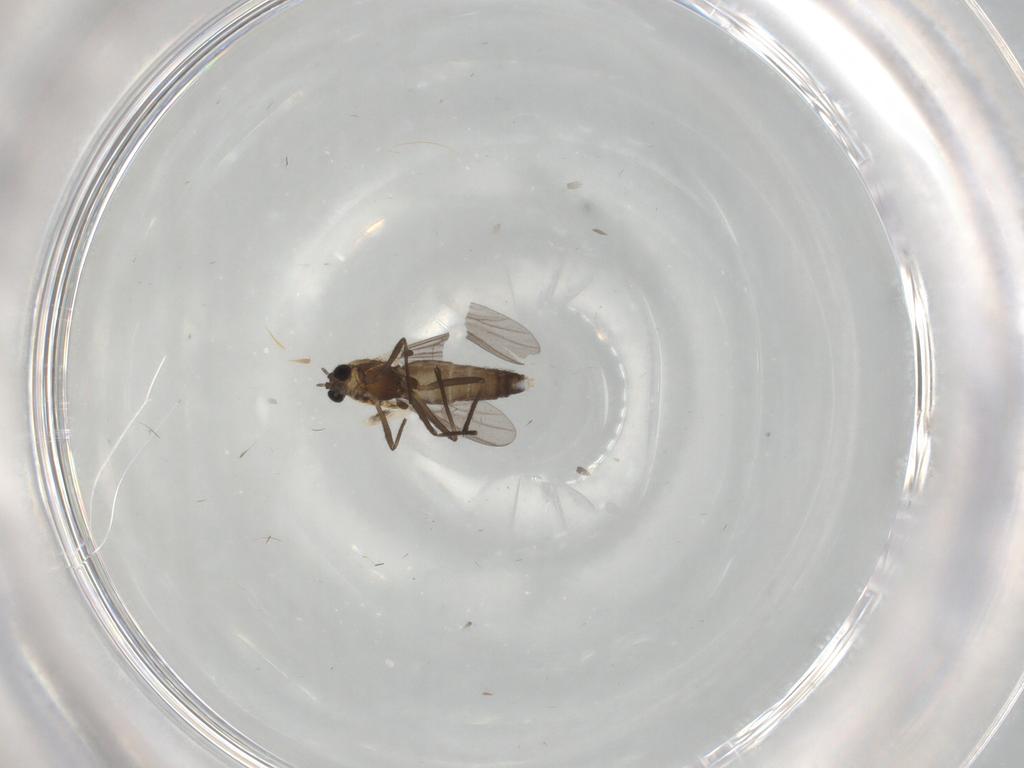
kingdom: Animalia
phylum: Arthropoda
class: Insecta
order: Diptera
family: Chironomidae
